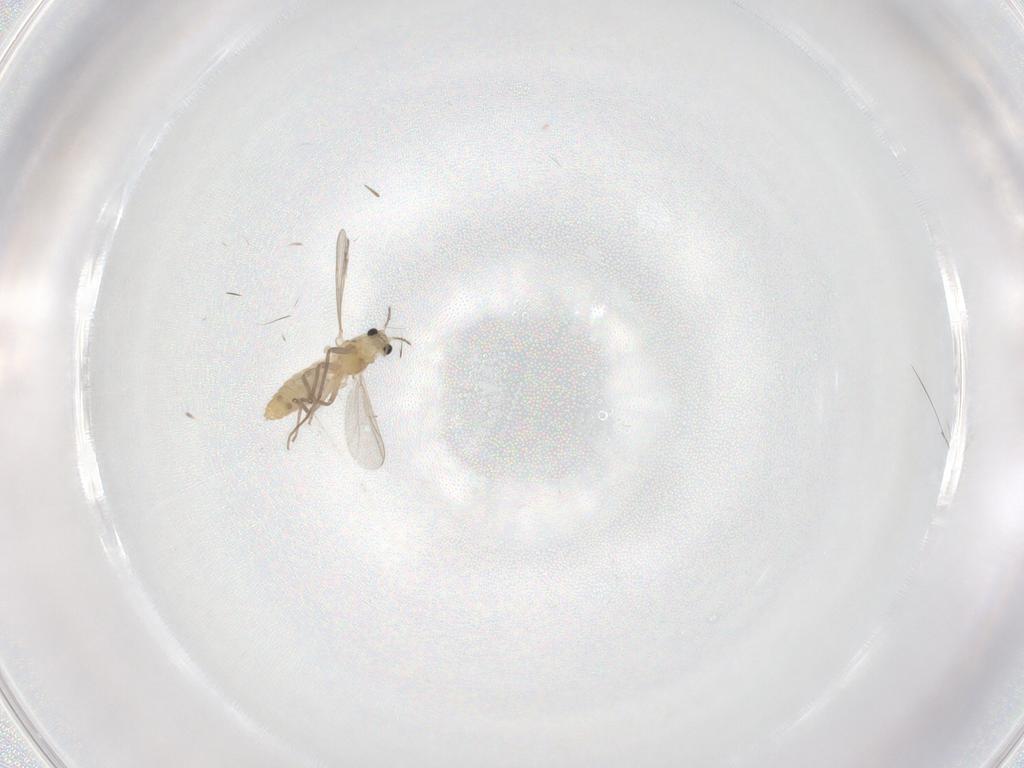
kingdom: Animalia
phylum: Arthropoda
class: Insecta
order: Diptera
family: Chironomidae
